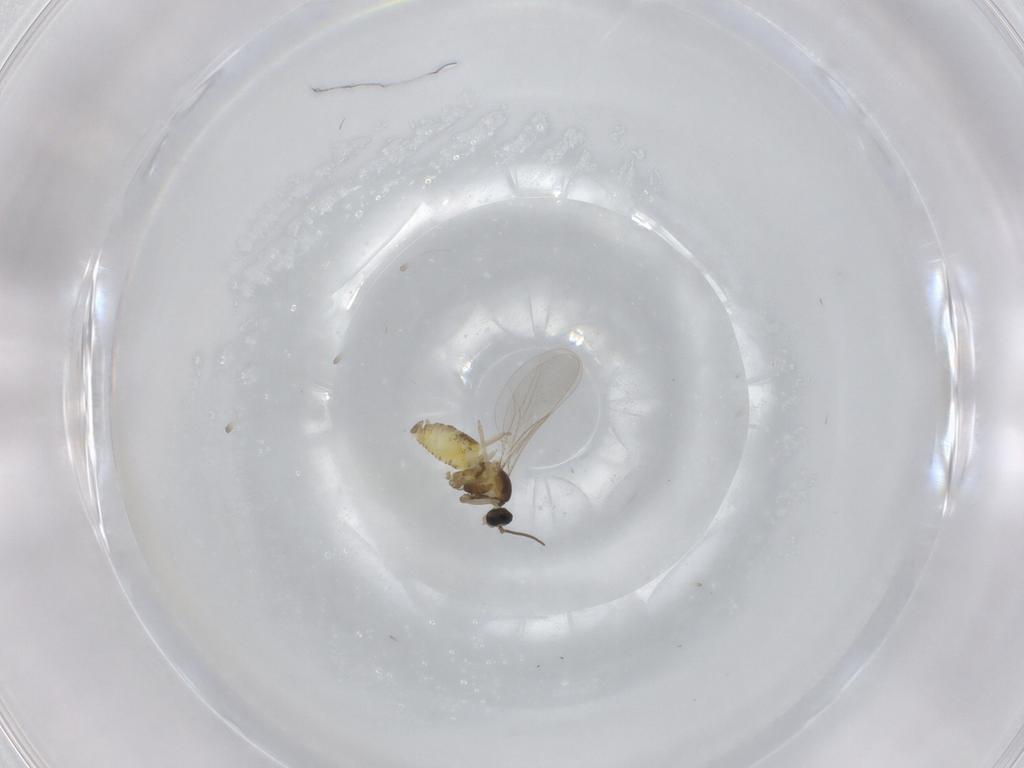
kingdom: Animalia
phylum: Arthropoda
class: Insecta
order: Diptera
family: Cecidomyiidae
